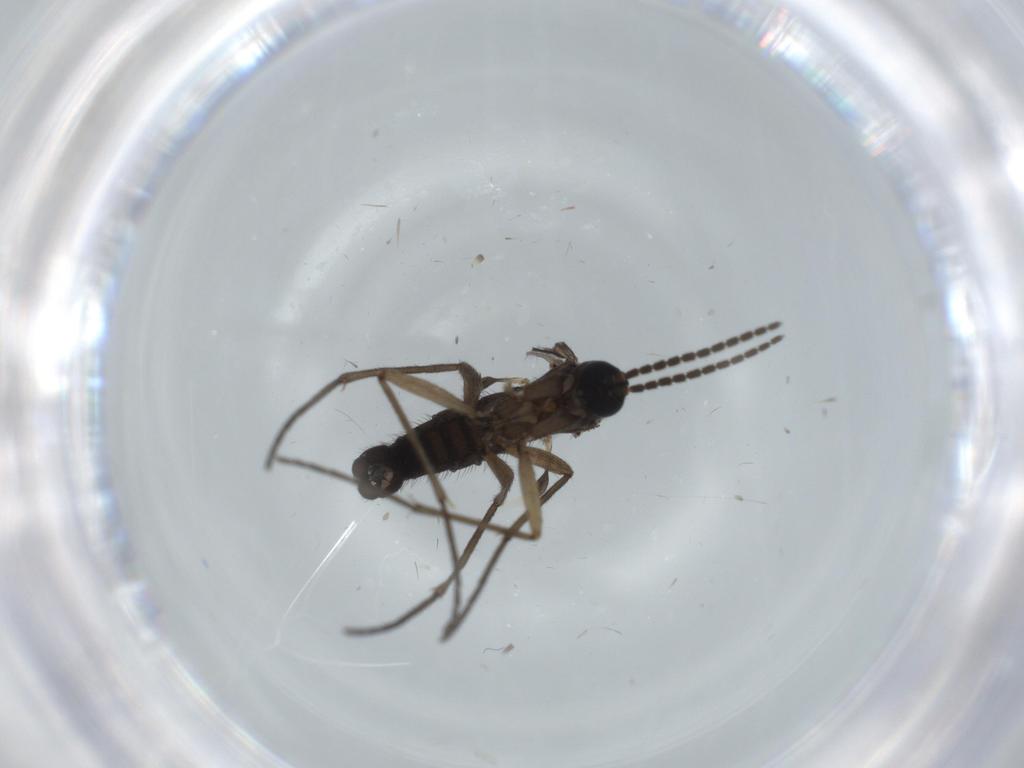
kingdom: Animalia
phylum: Arthropoda
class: Insecta
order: Diptera
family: Sciaridae
